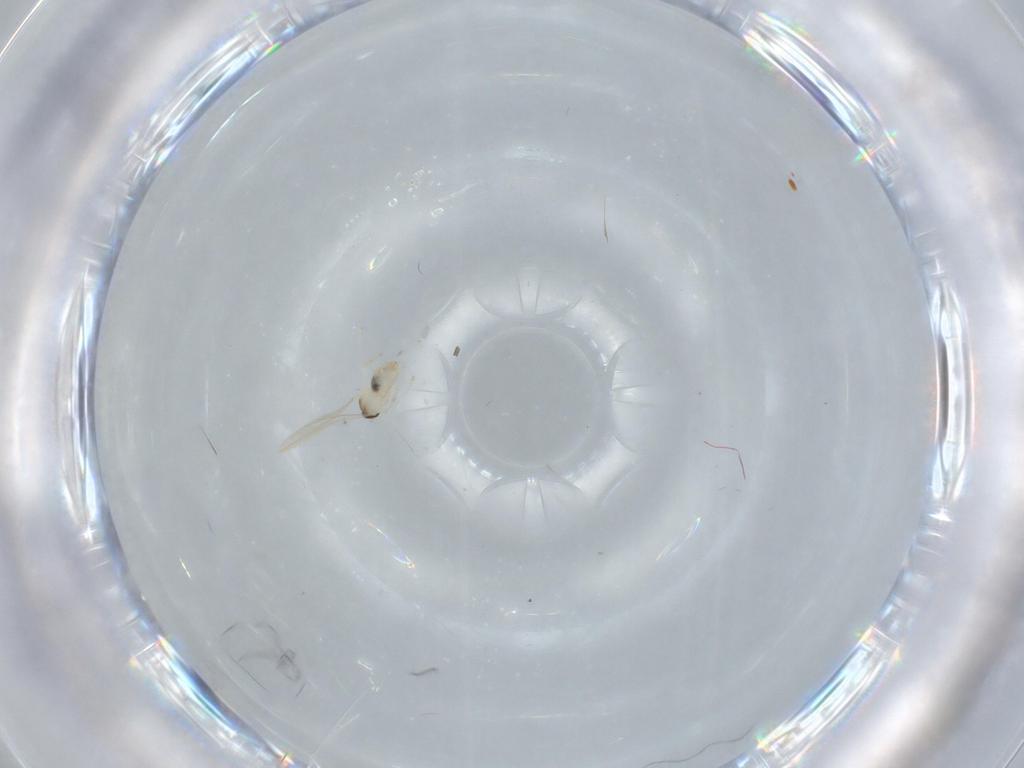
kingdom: Animalia
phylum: Arthropoda
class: Insecta
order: Diptera
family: Cecidomyiidae
